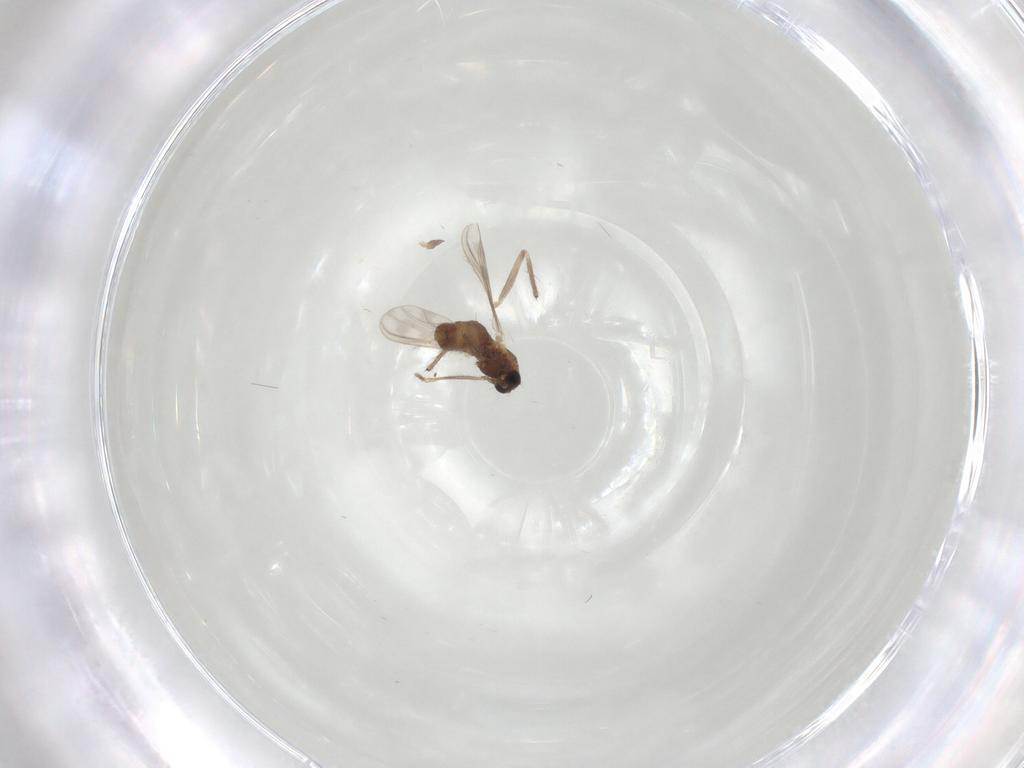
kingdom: Animalia
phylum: Arthropoda
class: Insecta
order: Diptera
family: Chironomidae
